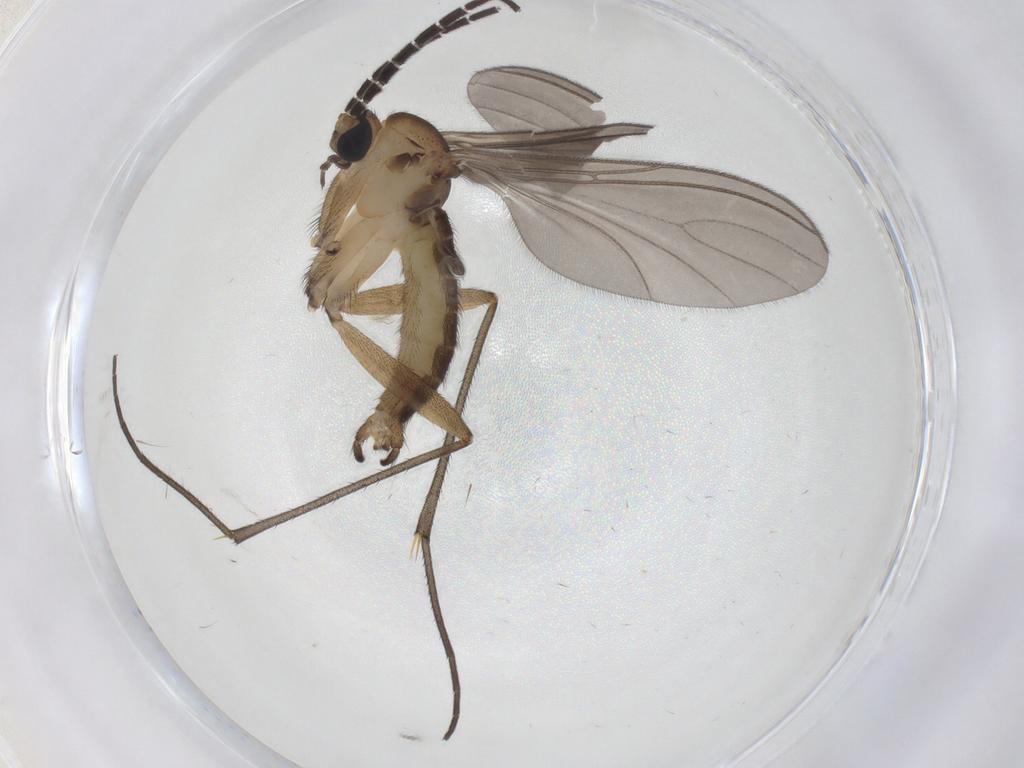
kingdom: Animalia
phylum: Arthropoda
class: Insecta
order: Diptera
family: Sciaridae
